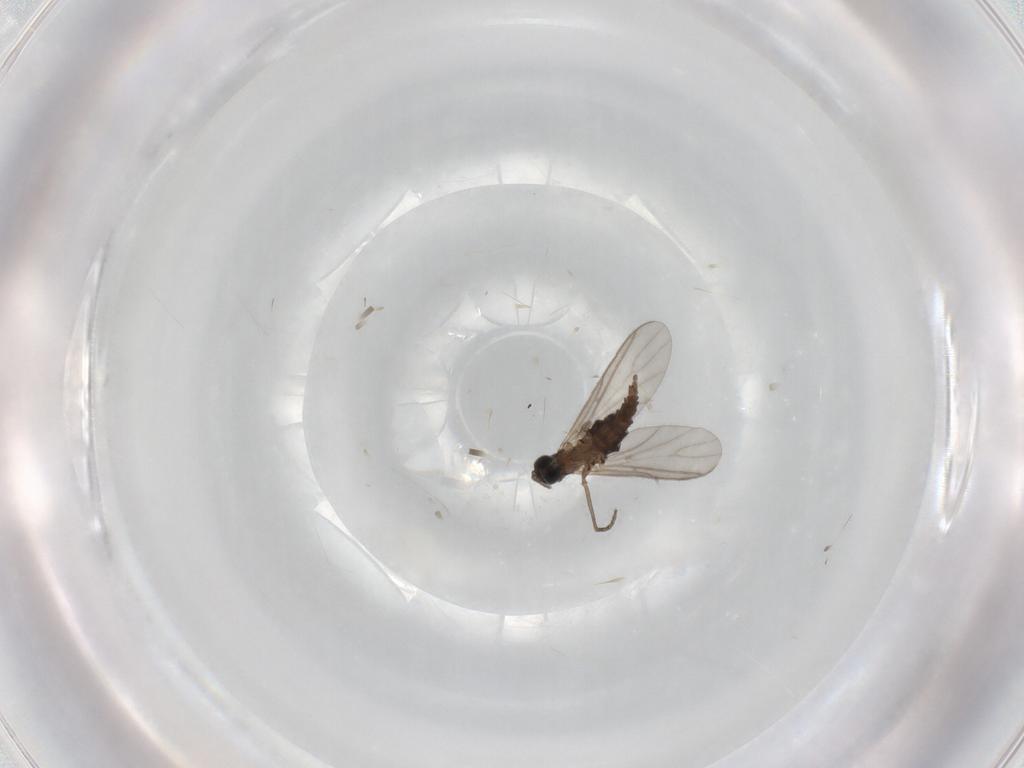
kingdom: Animalia
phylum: Arthropoda
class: Insecta
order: Diptera
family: Sciaridae
